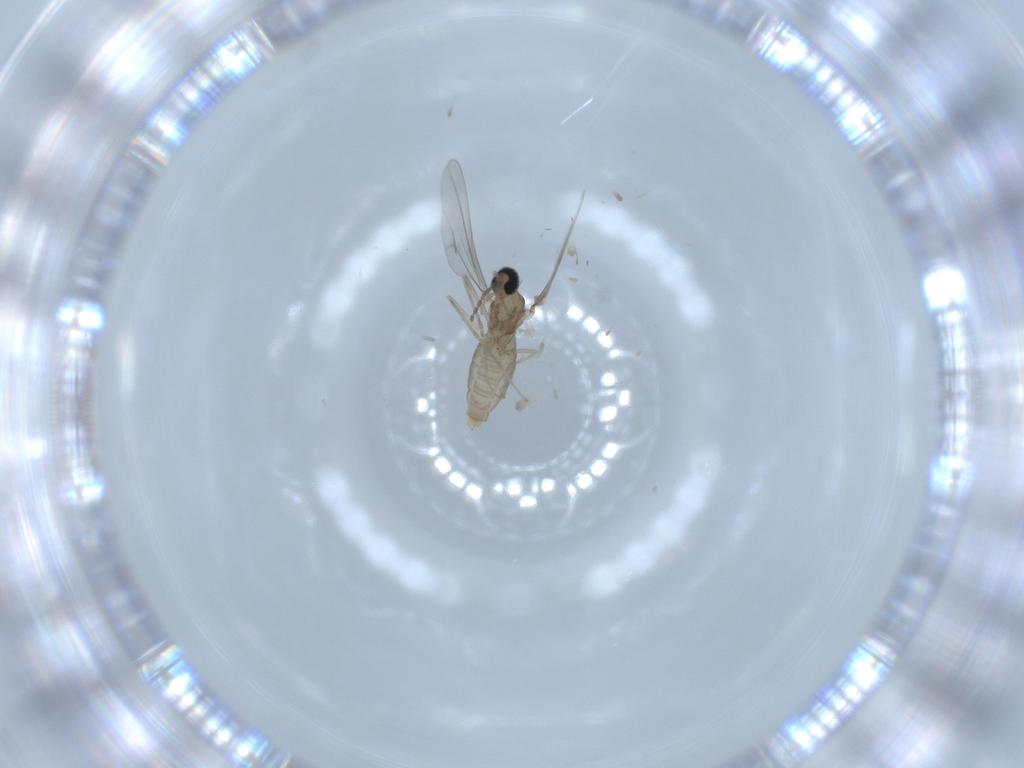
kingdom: Animalia
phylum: Arthropoda
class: Insecta
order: Diptera
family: Cecidomyiidae
